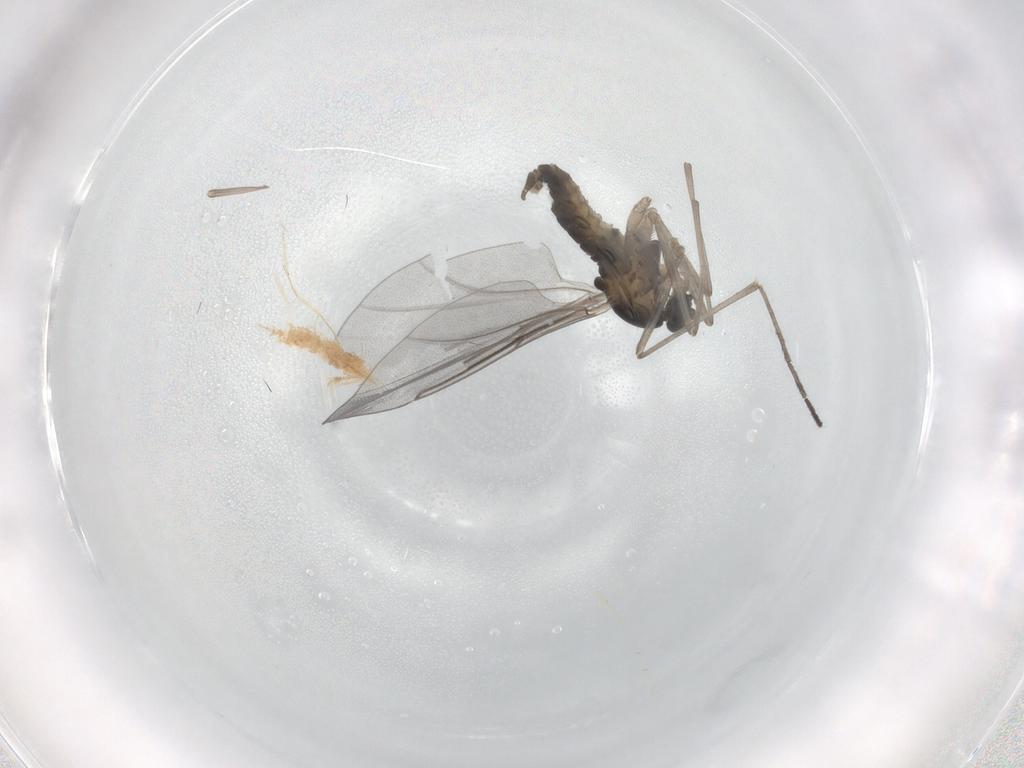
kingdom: Animalia
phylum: Arthropoda
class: Insecta
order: Diptera
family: Cecidomyiidae
